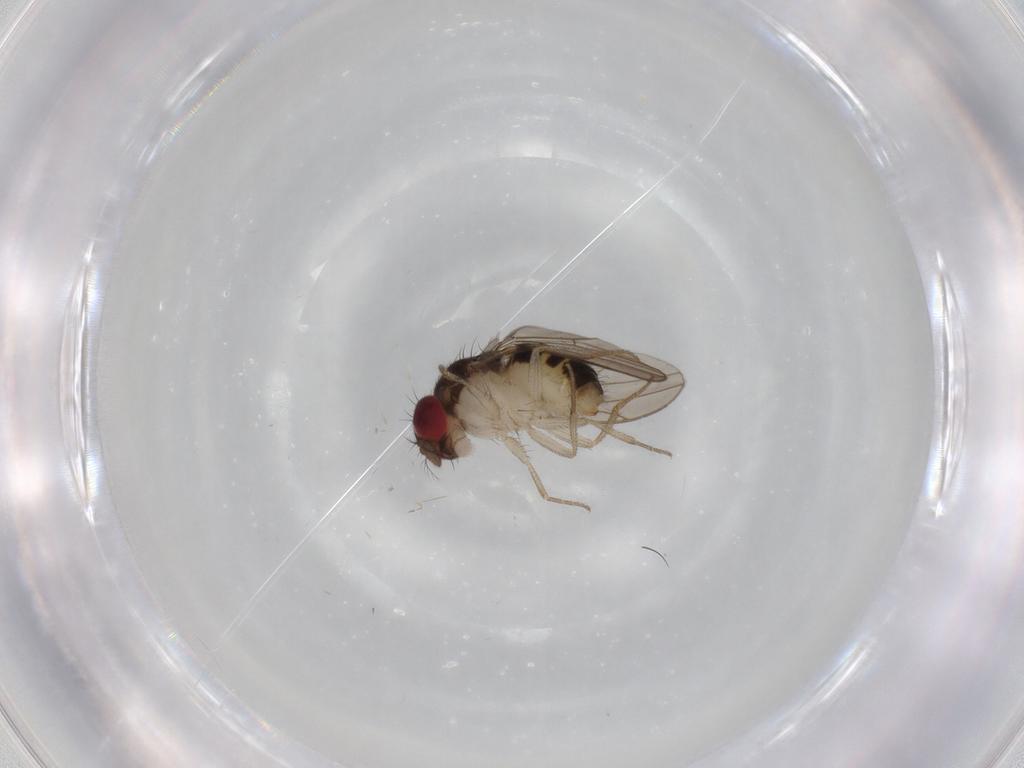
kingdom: Animalia
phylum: Arthropoda
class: Insecta
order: Diptera
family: Drosophilidae
